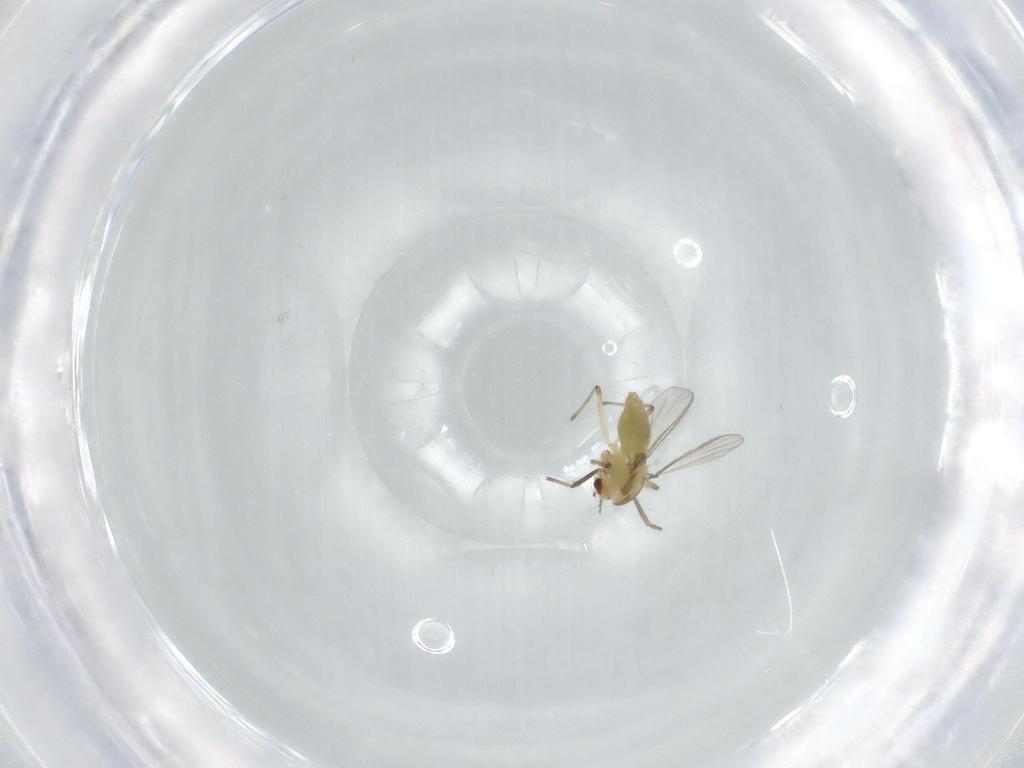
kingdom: Animalia
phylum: Arthropoda
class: Insecta
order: Diptera
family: Chironomidae
